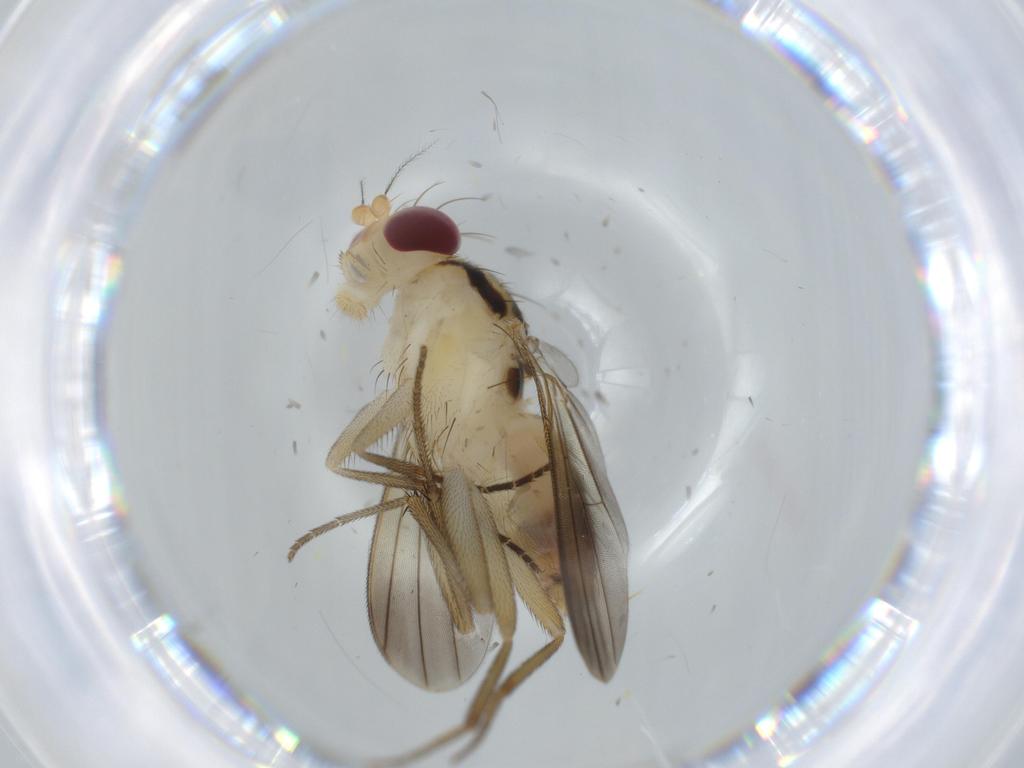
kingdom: Animalia
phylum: Arthropoda
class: Insecta
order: Diptera
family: Clusiidae
